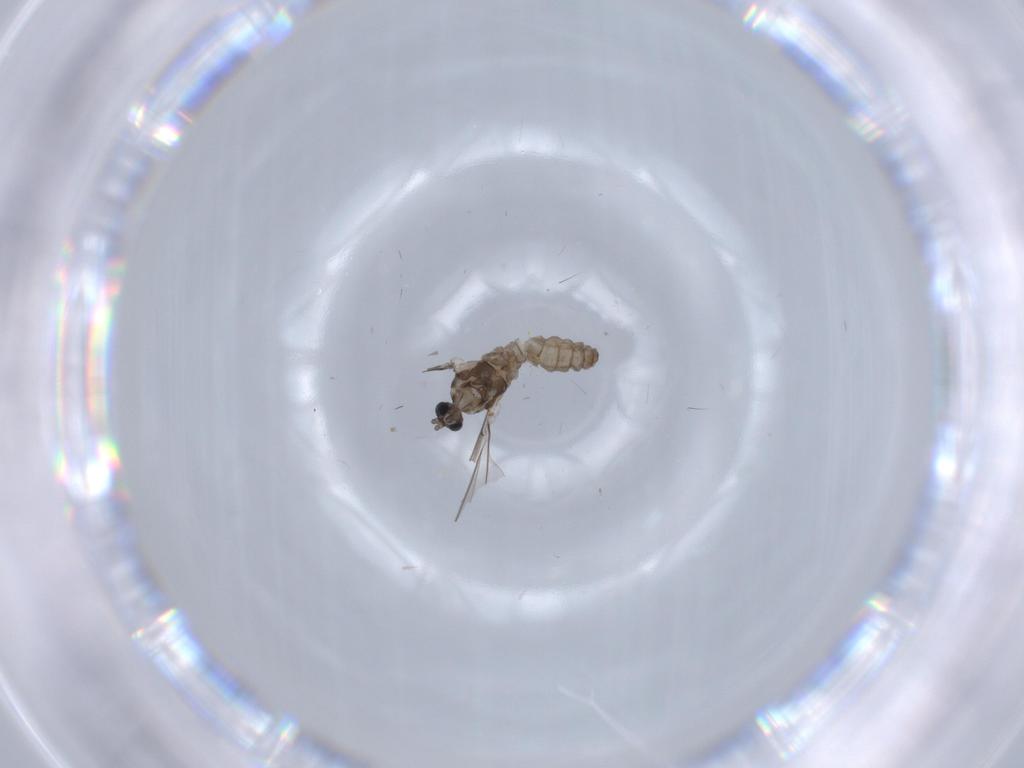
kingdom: Animalia
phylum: Arthropoda
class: Insecta
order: Diptera
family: Cecidomyiidae
